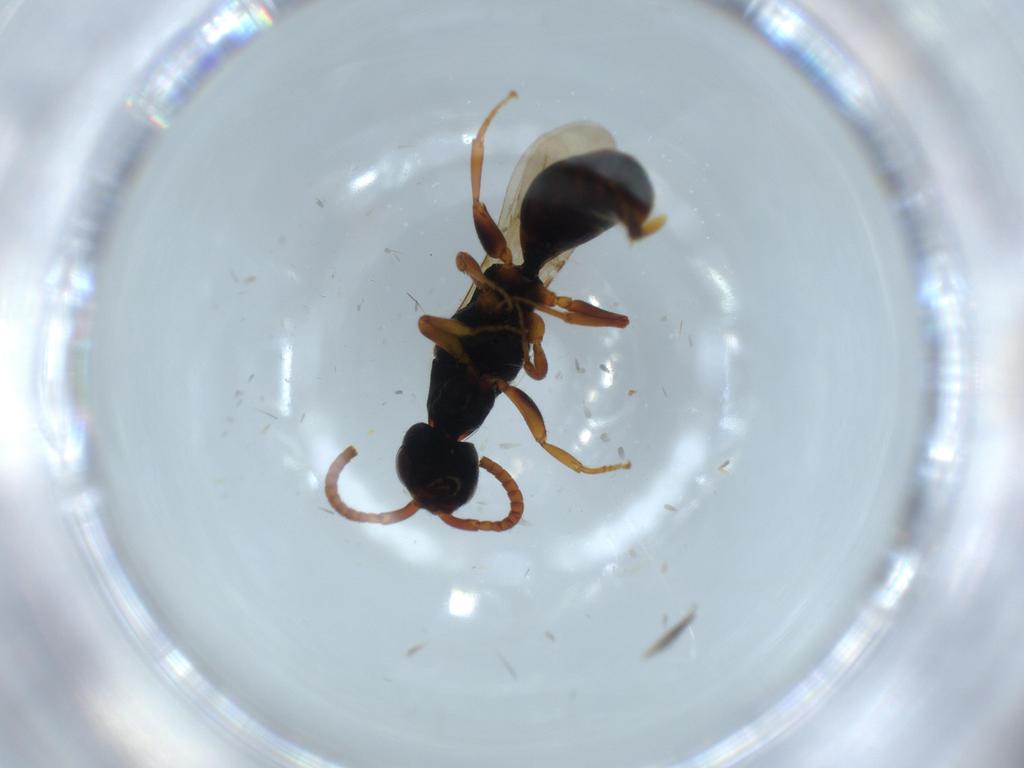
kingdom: Animalia
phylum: Arthropoda
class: Insecta
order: Hymenoptera
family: Bethylidae
